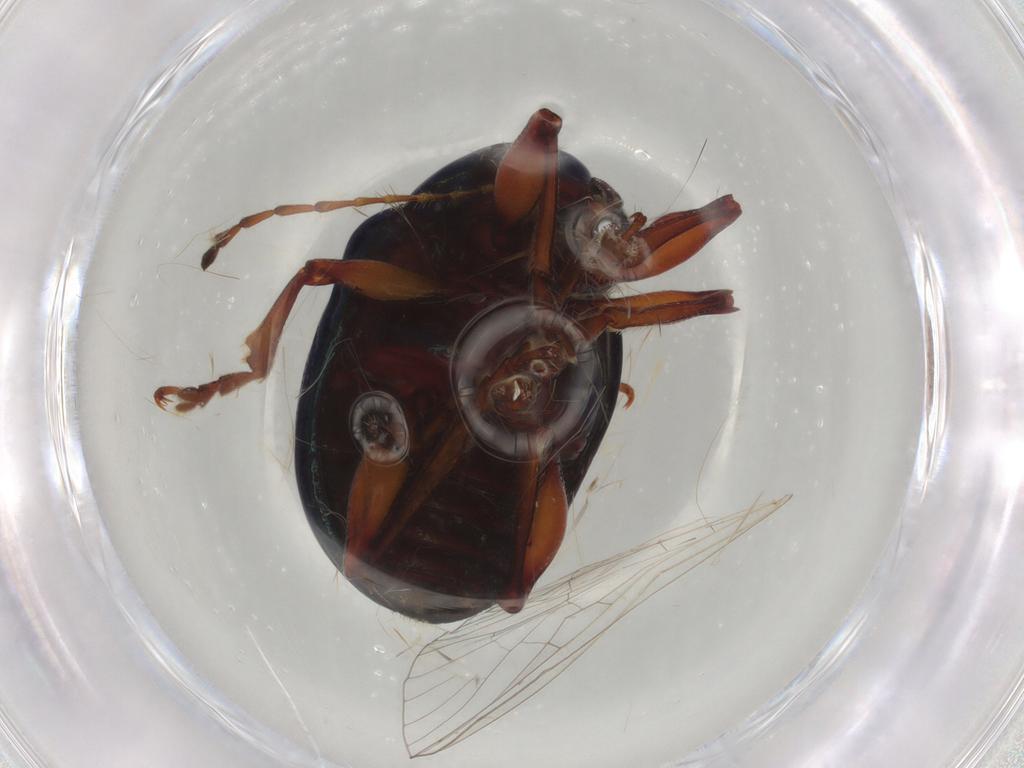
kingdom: Animalia
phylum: Arthropoda
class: Insecta
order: Coleoptera
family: Chrysomelidae
